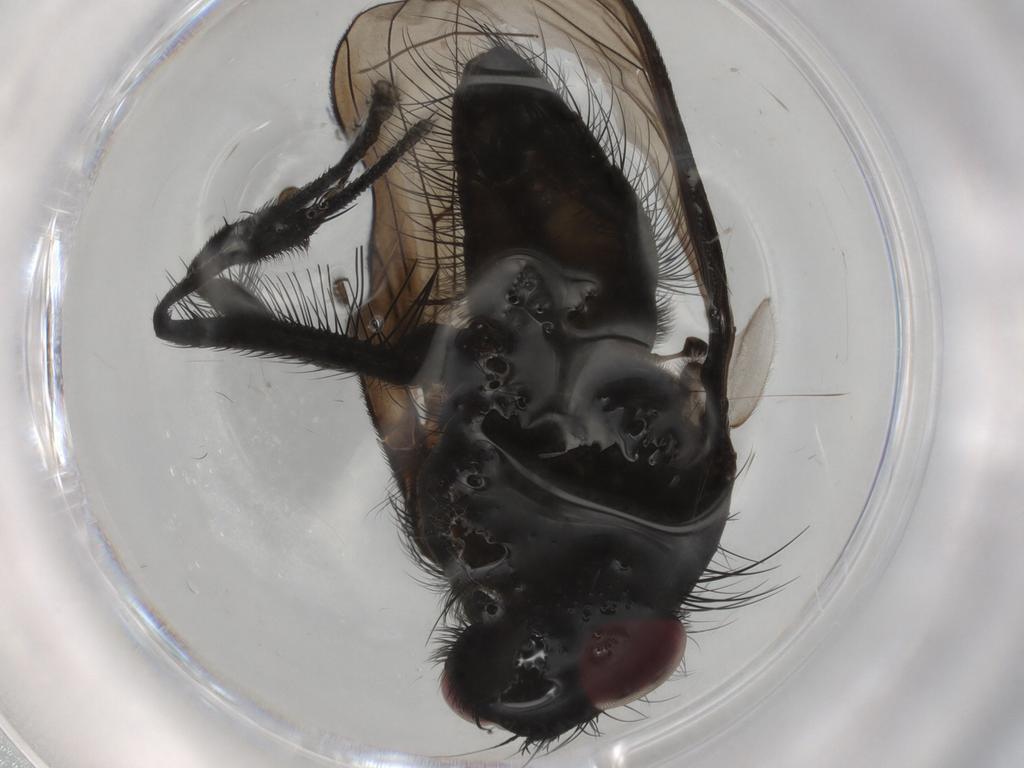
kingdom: Animalia
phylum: Arthropoda
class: Insecta
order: Diptera
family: Fannia
